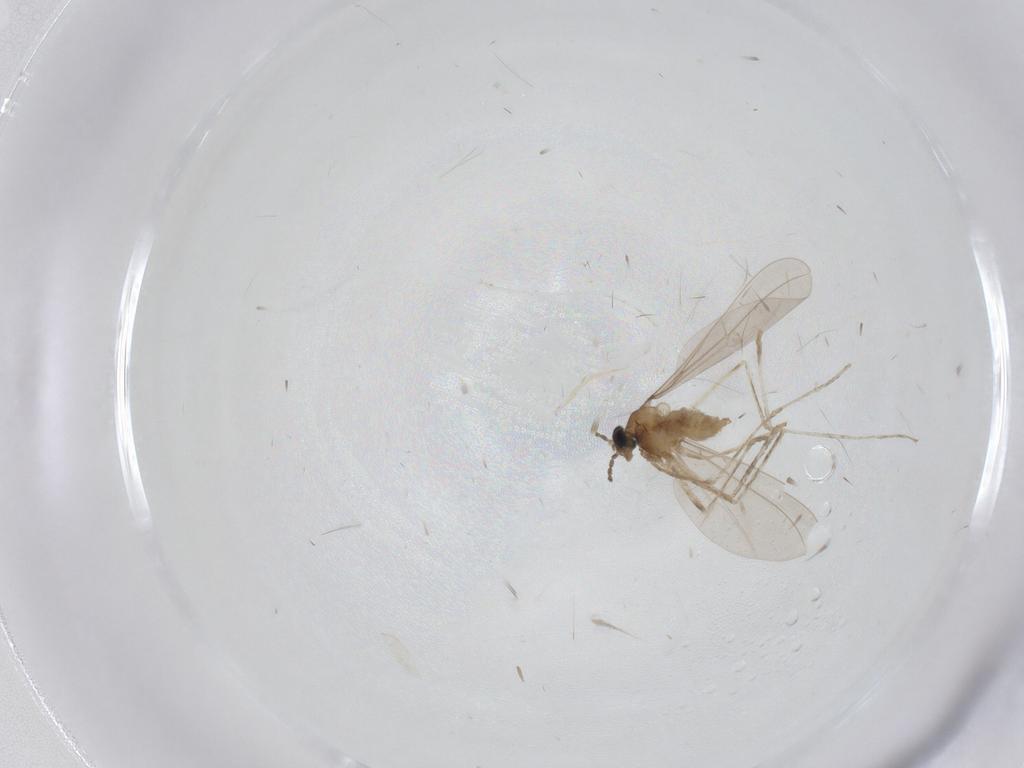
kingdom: Animalia
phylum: Arthropoda
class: Insecta
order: Diptera
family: Cecidomyiidae
